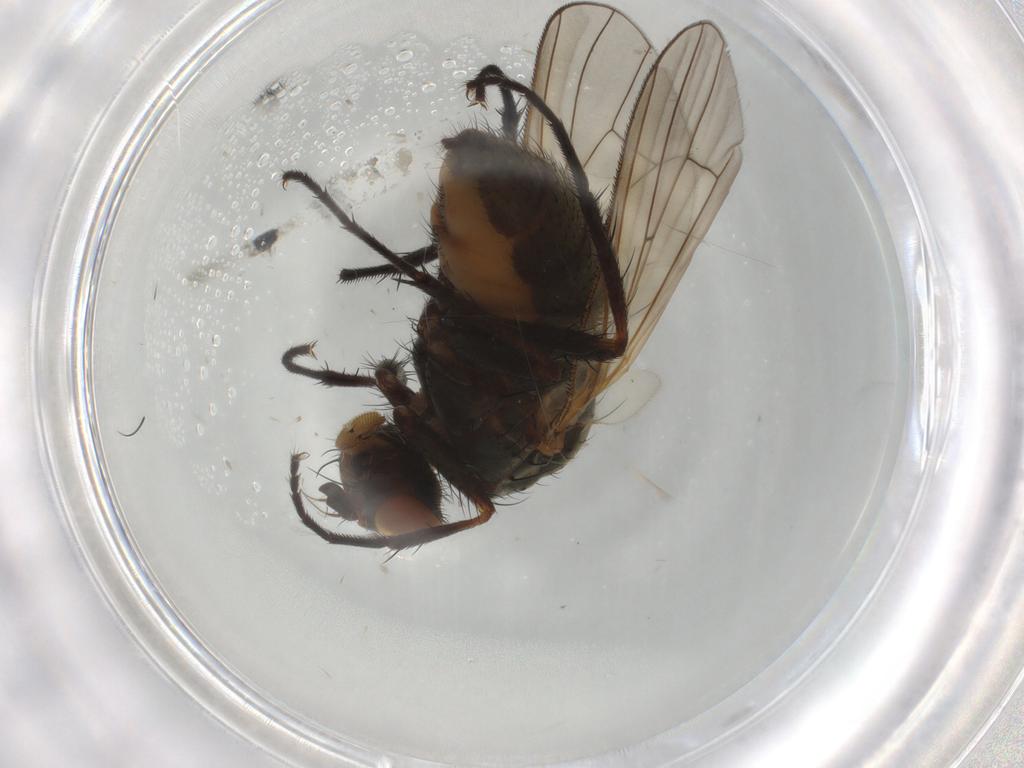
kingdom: Animalia
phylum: Arthropoda
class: Insecta
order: Diptera
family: Anthomyiidae
